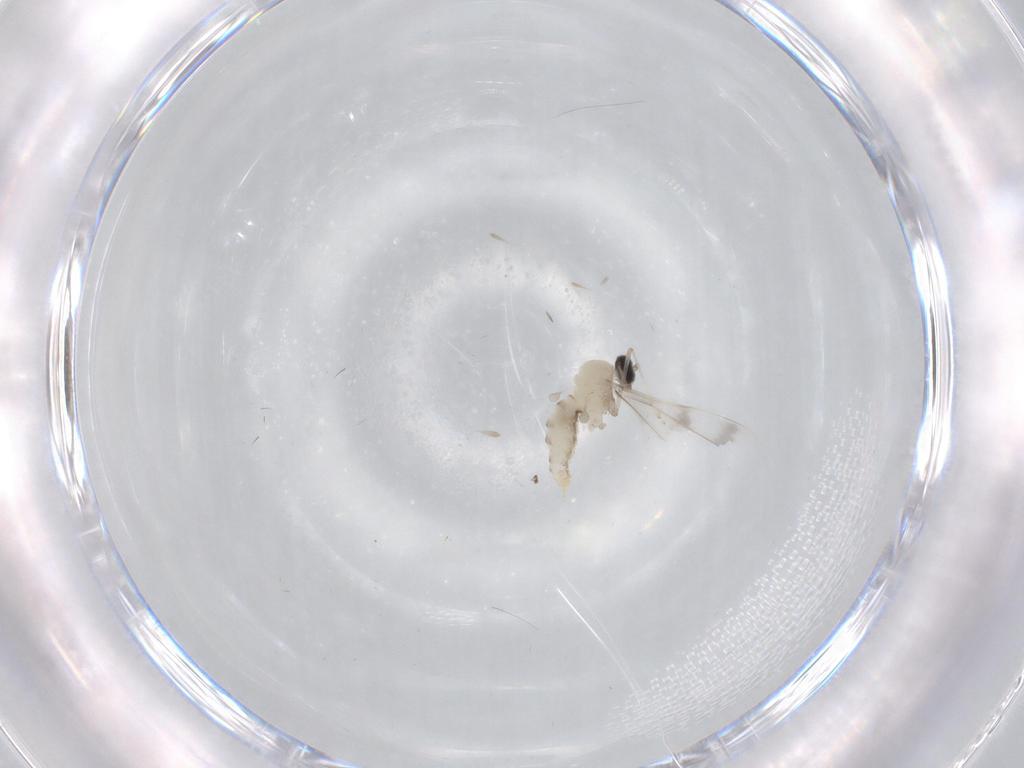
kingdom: Animalia
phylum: Arthropoda
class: Insecta
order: Diptera
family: Cecidomyiidae
